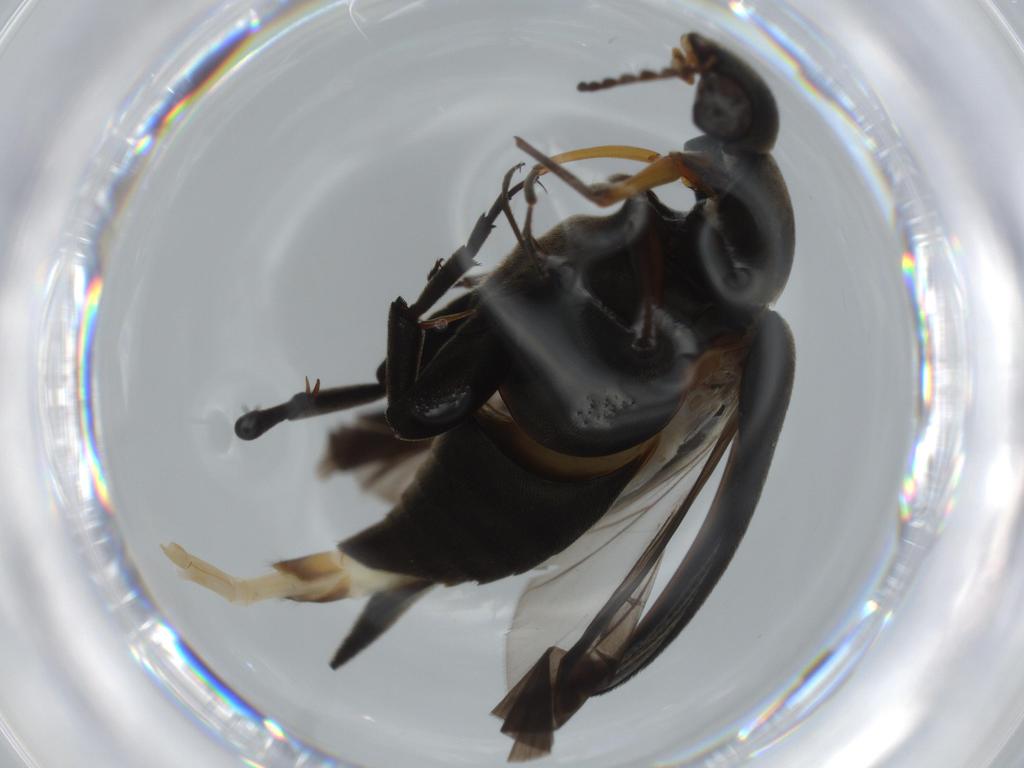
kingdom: Animalia
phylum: Arthropoda
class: Insecta
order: Coleoptera
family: Mordellidae
